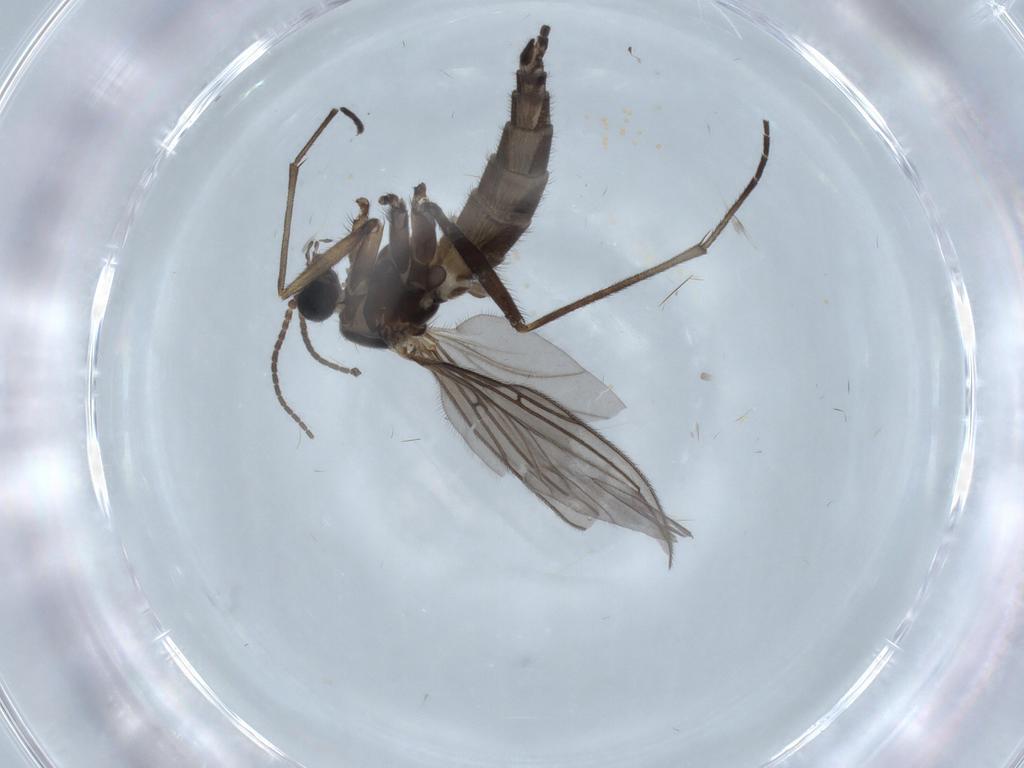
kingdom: Animalia
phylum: Arthropoda
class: Insecta
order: Diptera
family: Sciaridae
